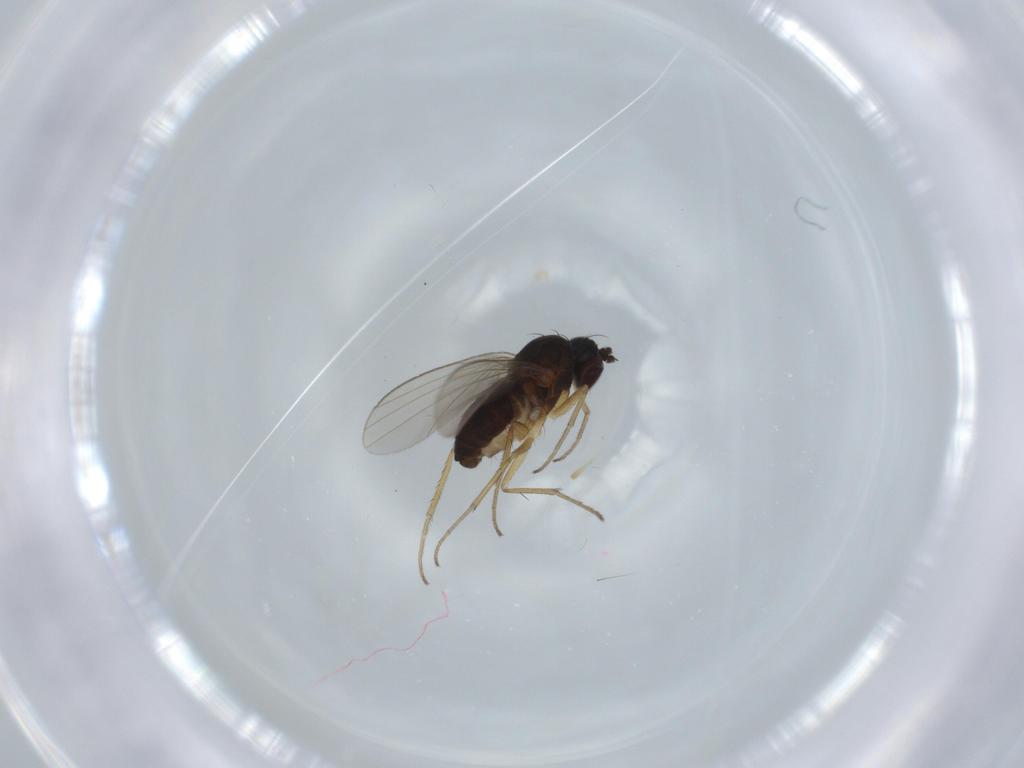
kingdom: Animalia
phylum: Arthropoda
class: Insecta
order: Diptera
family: Dolichopodidae
